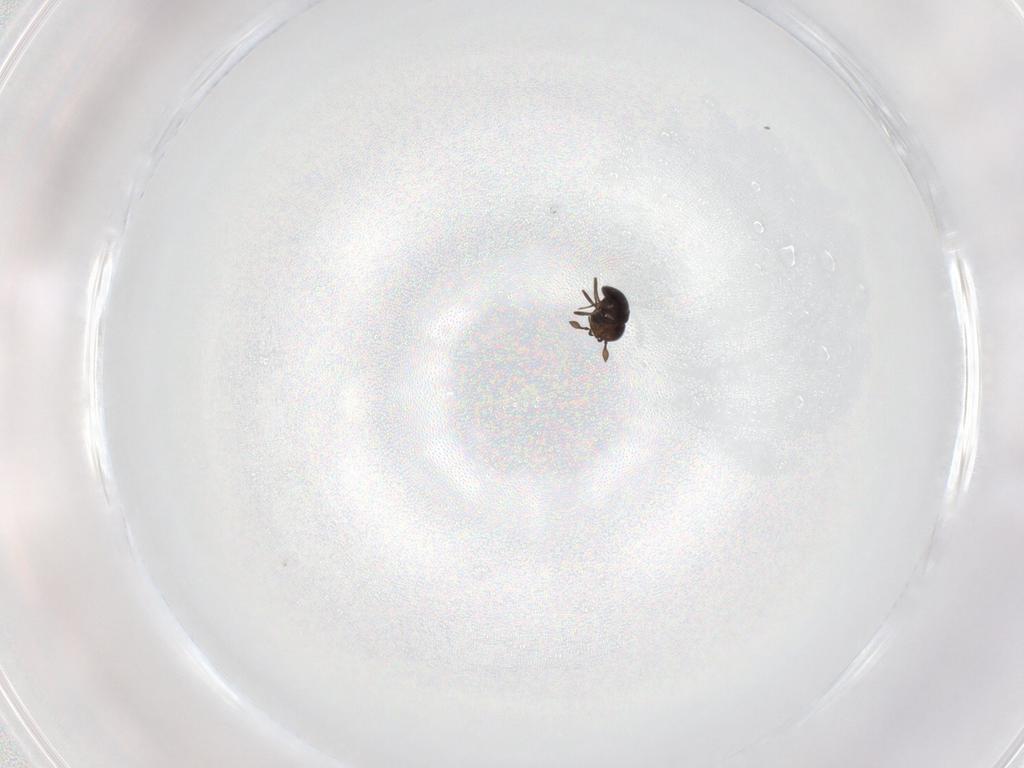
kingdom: Animalia
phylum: Arthropoda
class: Insecta
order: Hymenoptera
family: Scelionidae
